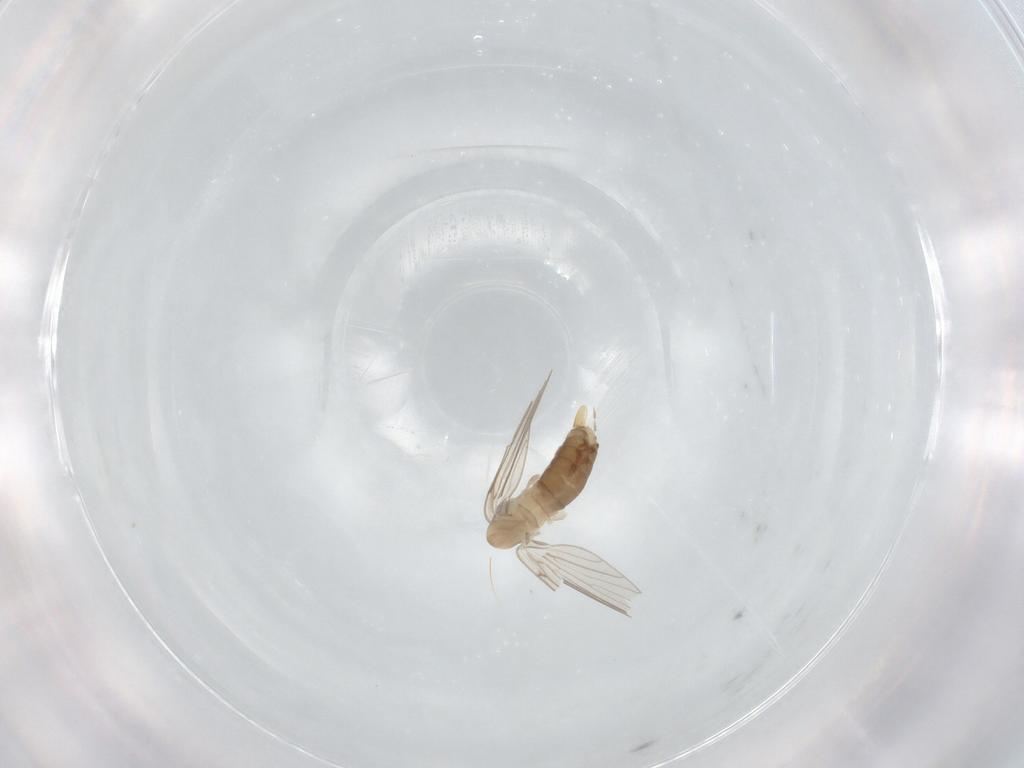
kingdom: Animalia
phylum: Arthropoda
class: Insecta
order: Diptera
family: Psychodidae
